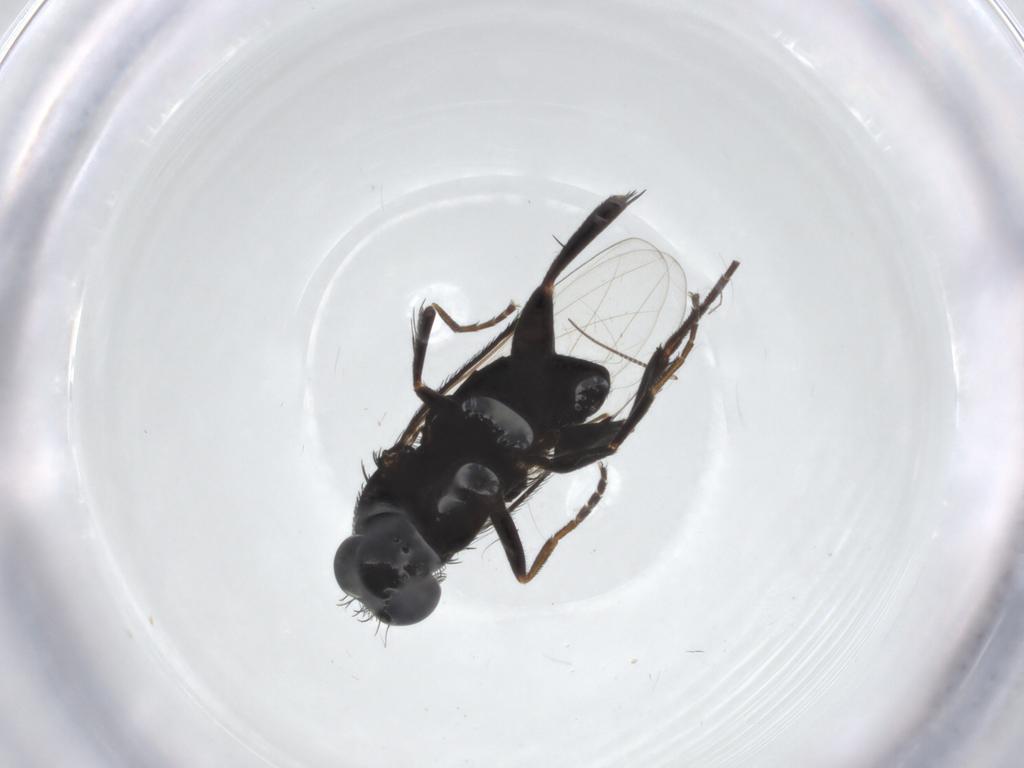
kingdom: Animalia
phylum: Arthropoda
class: Insecta
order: Diptera
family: Phoridae
